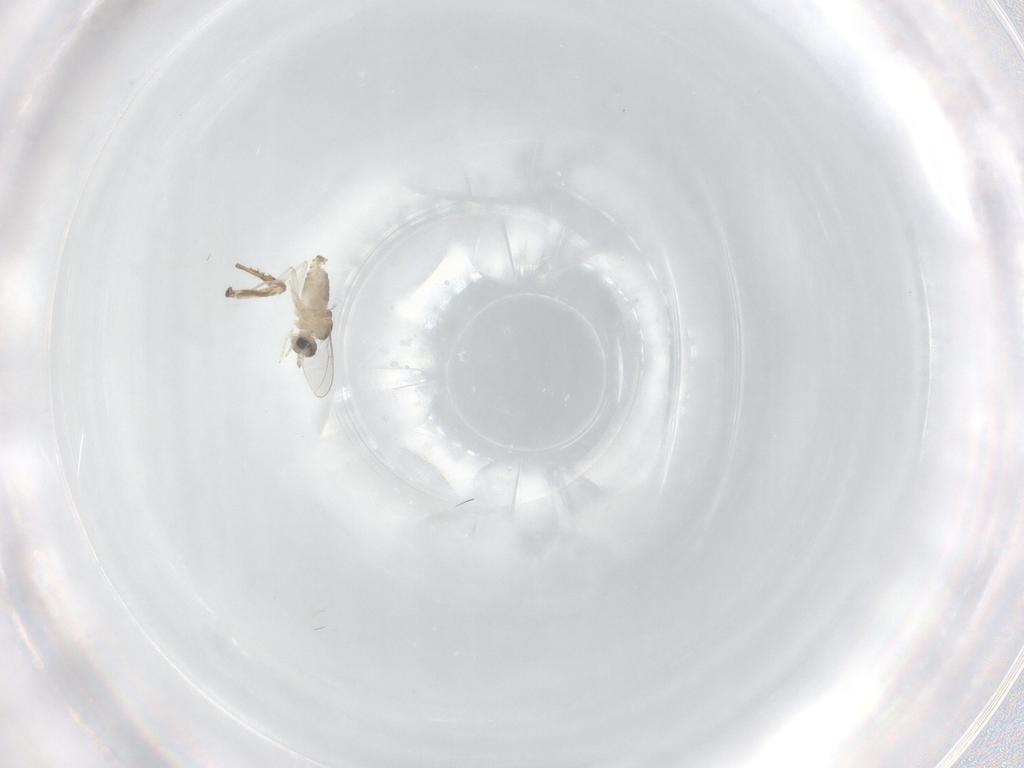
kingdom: Animalia
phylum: Arthropoda
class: Insecta
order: Diptera
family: Cecidomyiidae
